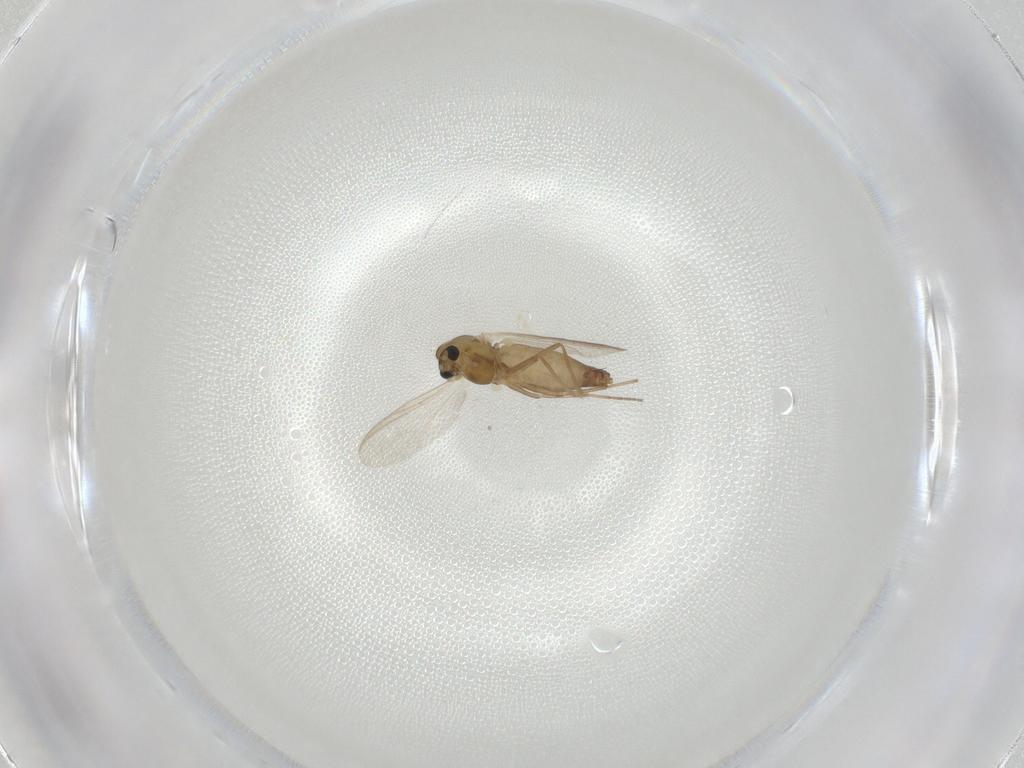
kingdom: Animalia
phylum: Arthropoda
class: Insecta
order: Diptera
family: Chironomidae
